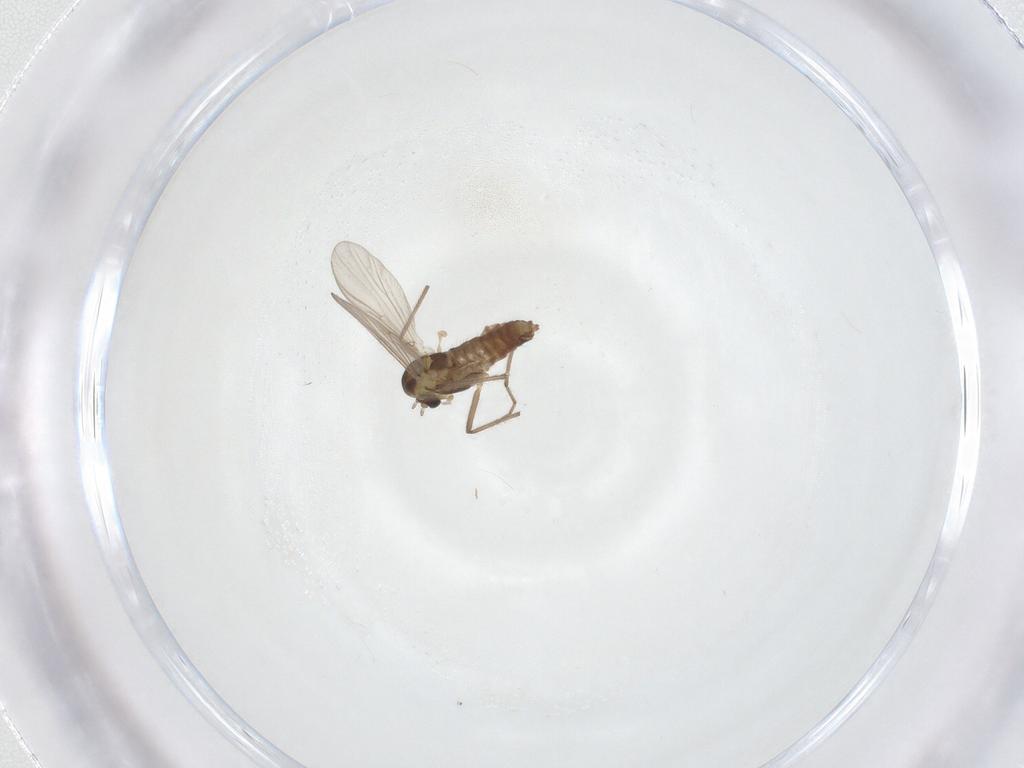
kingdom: Animalia
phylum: Arthropoda
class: Insecta
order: Diptera
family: Chironomidae
